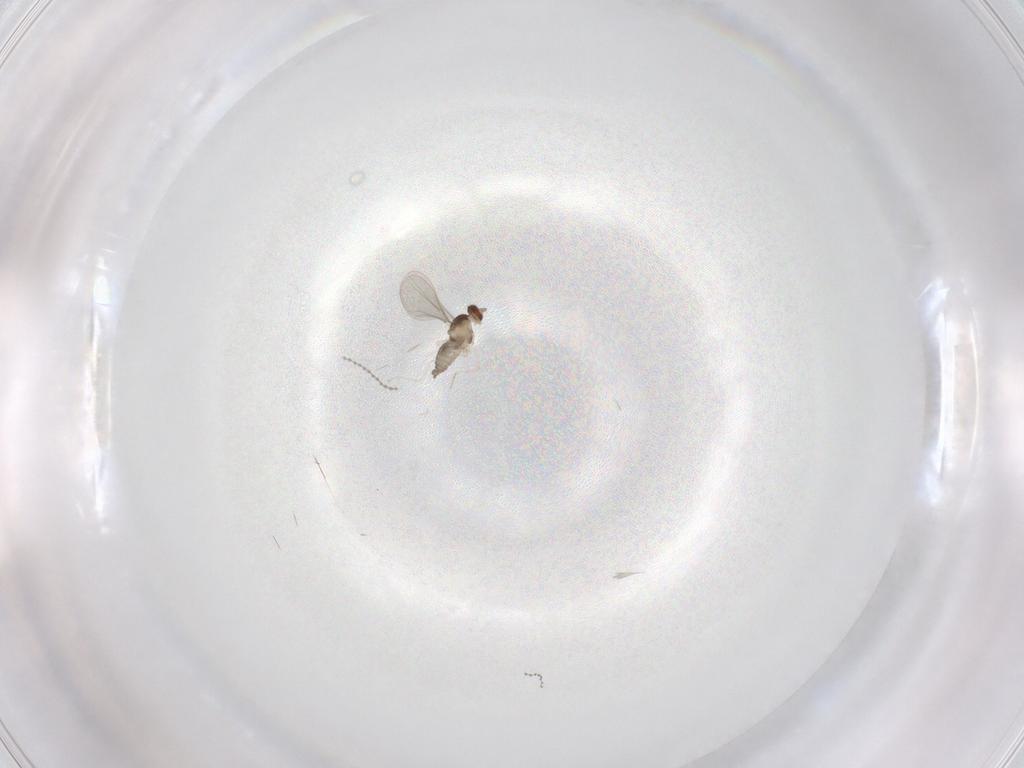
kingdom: Animalia
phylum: Arthropoda
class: Insecta
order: Diptera
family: Cecidomyiidae
